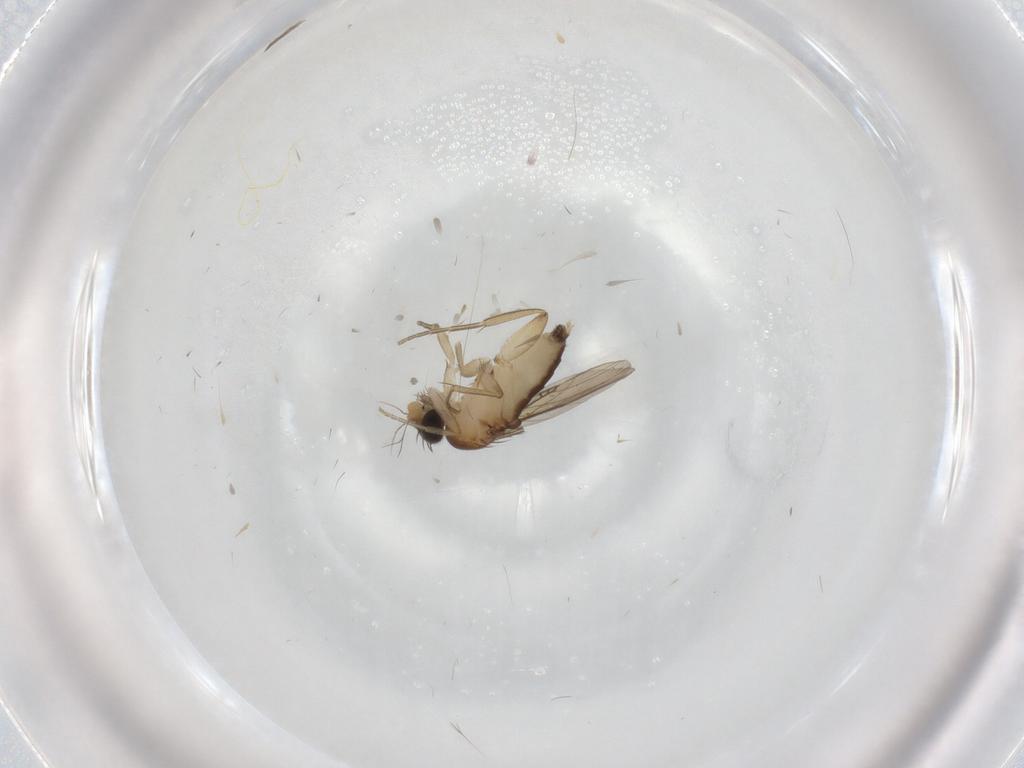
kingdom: Animalia
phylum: Arthropoda
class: Insecta
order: Diptera
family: Phoridae
